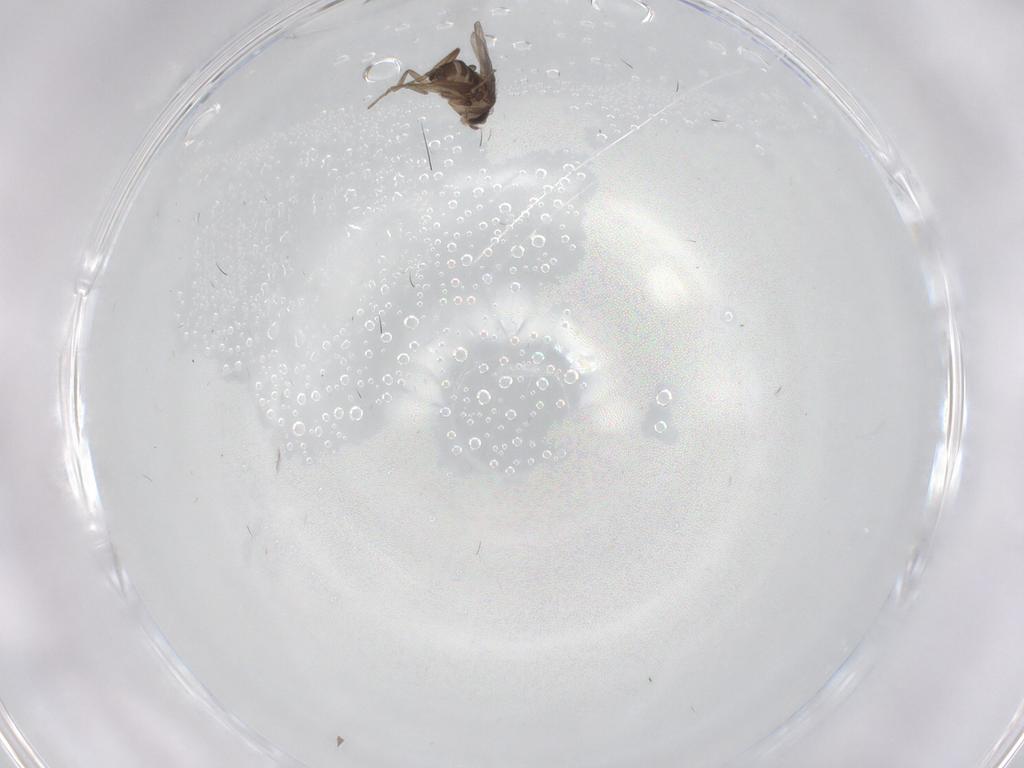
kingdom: Animalia
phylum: Arthropoda
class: Insecta
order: Diptera
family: Phoridae
